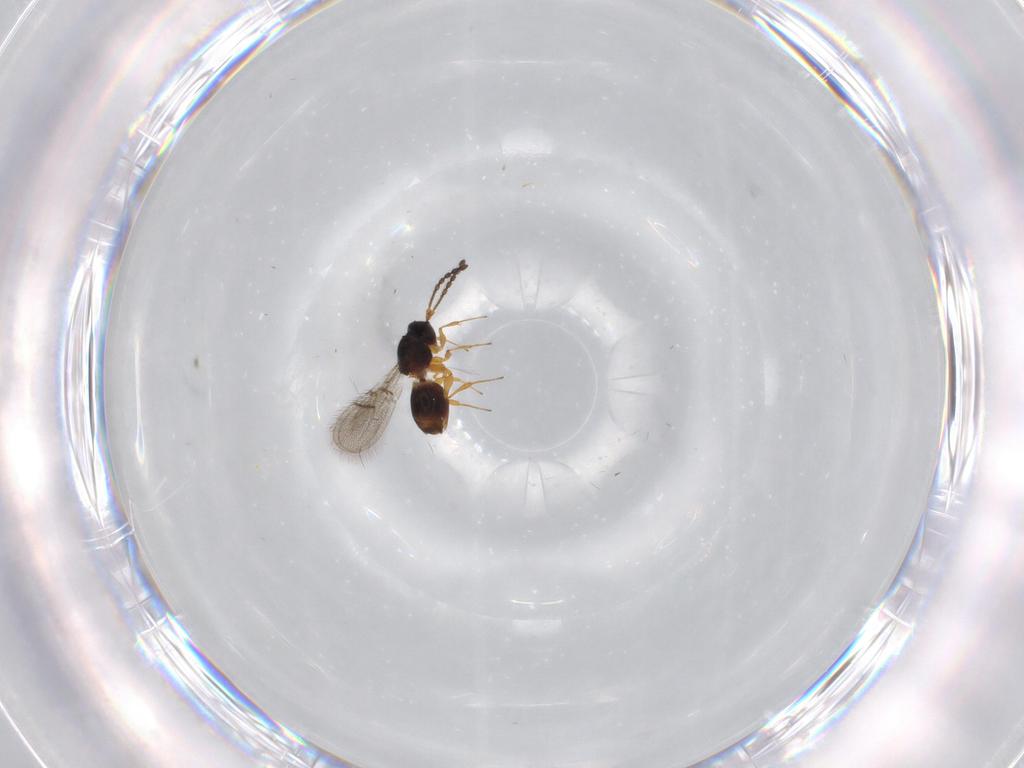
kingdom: Animalia
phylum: Arthropoda
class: Insecta
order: Hymenoptera
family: Figitidae
